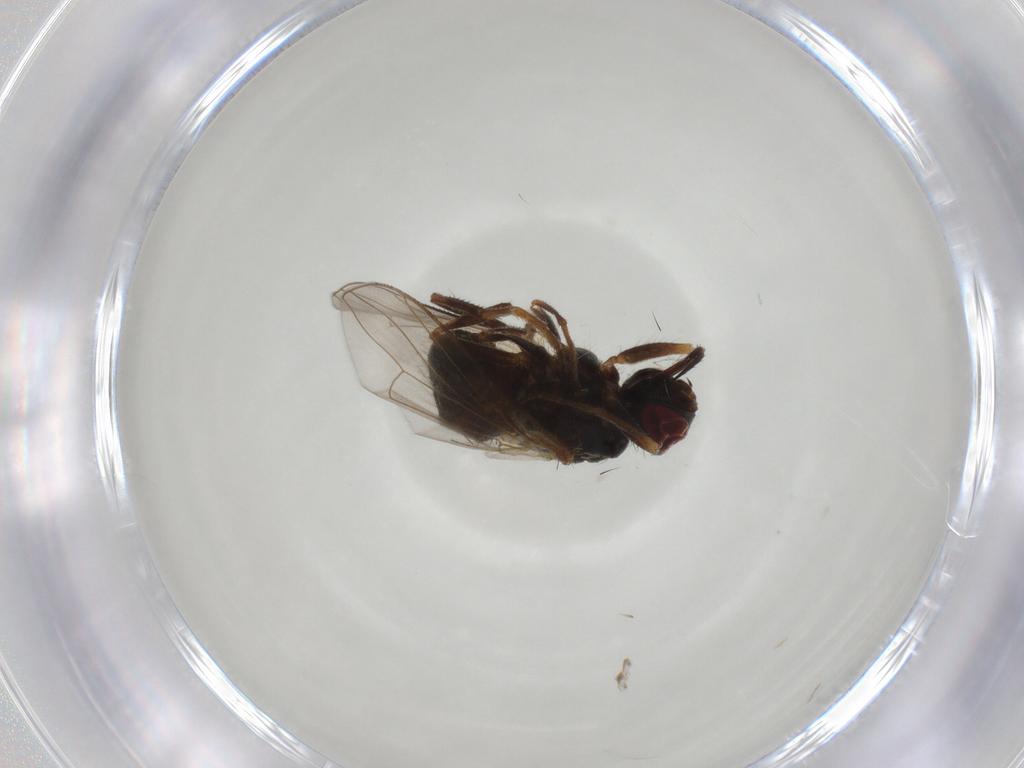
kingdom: Animalia
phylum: Arthropoda
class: Insecta
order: Diptera
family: Muscidae
